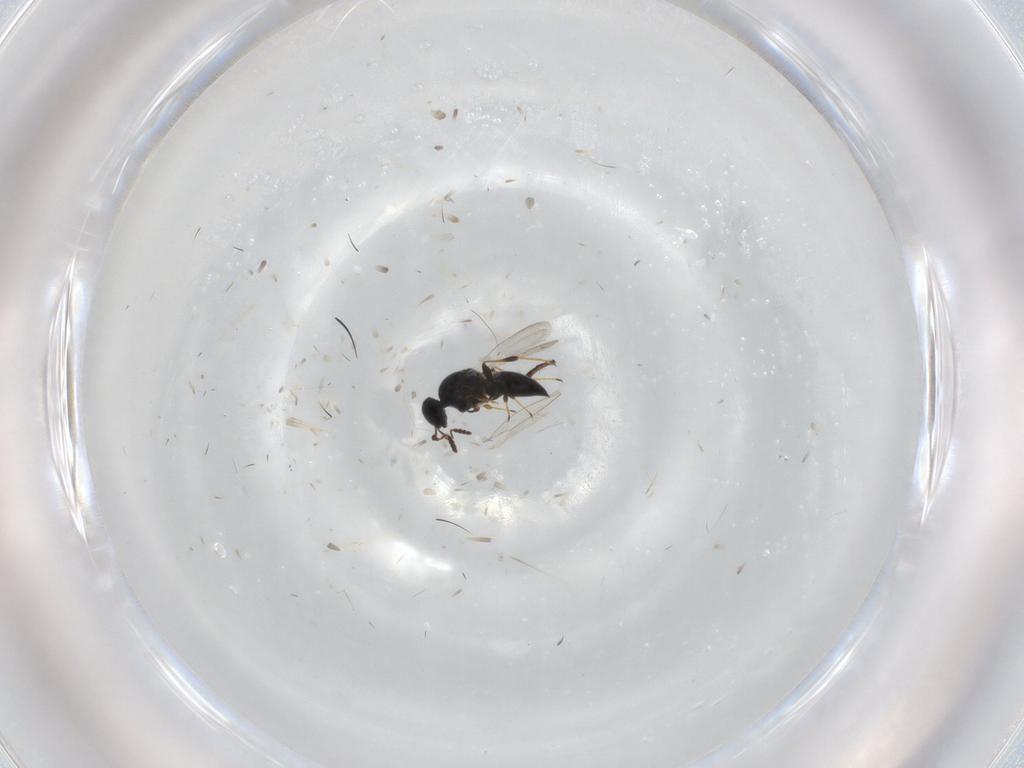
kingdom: Animalia
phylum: Arthropoda
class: Insecta
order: Hymenoptera
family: Platygastridae
